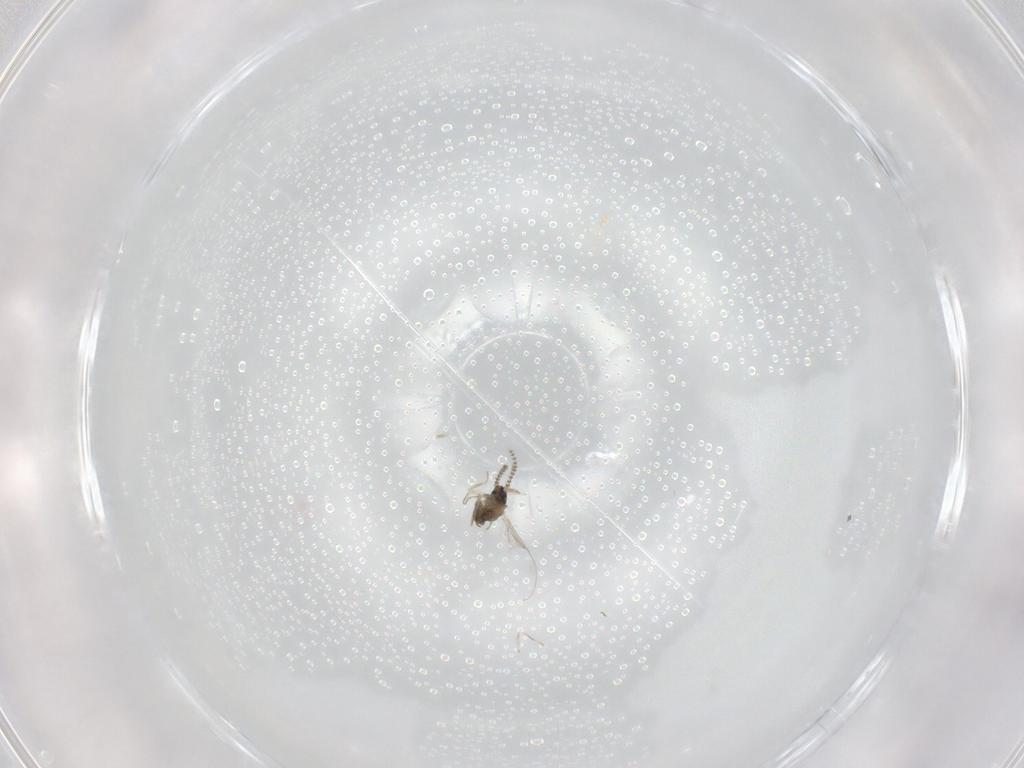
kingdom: Animalia
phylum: Arthropoda
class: Insecta
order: Diptera
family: Cecidomyiidae
